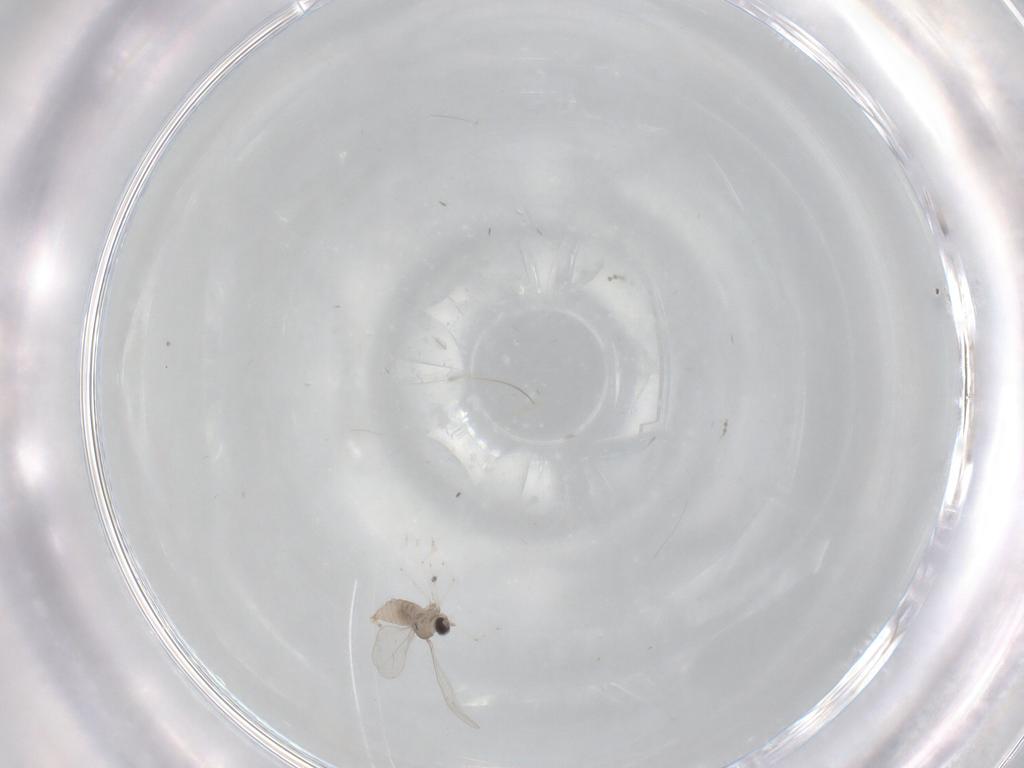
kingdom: Animalia
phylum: Arthropoda
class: Insecta
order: Diptera
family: Cecidomyiidae
